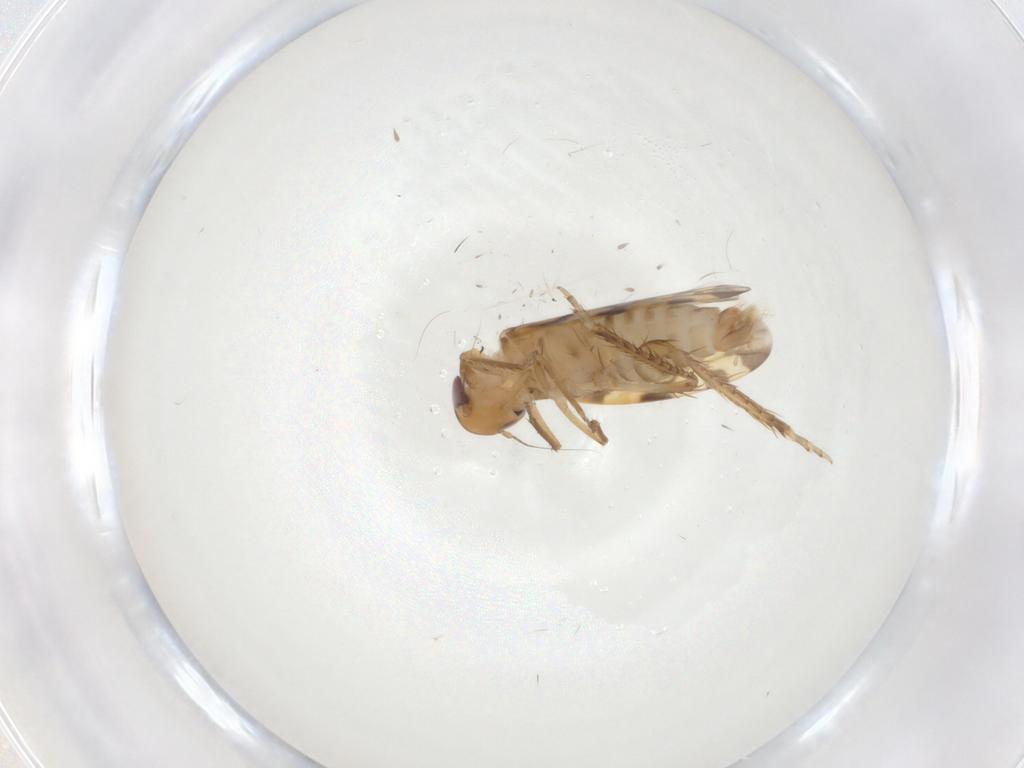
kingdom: Animalia
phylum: Arthropoda
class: Insecta
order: Hemiptera
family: Cicadellidae
